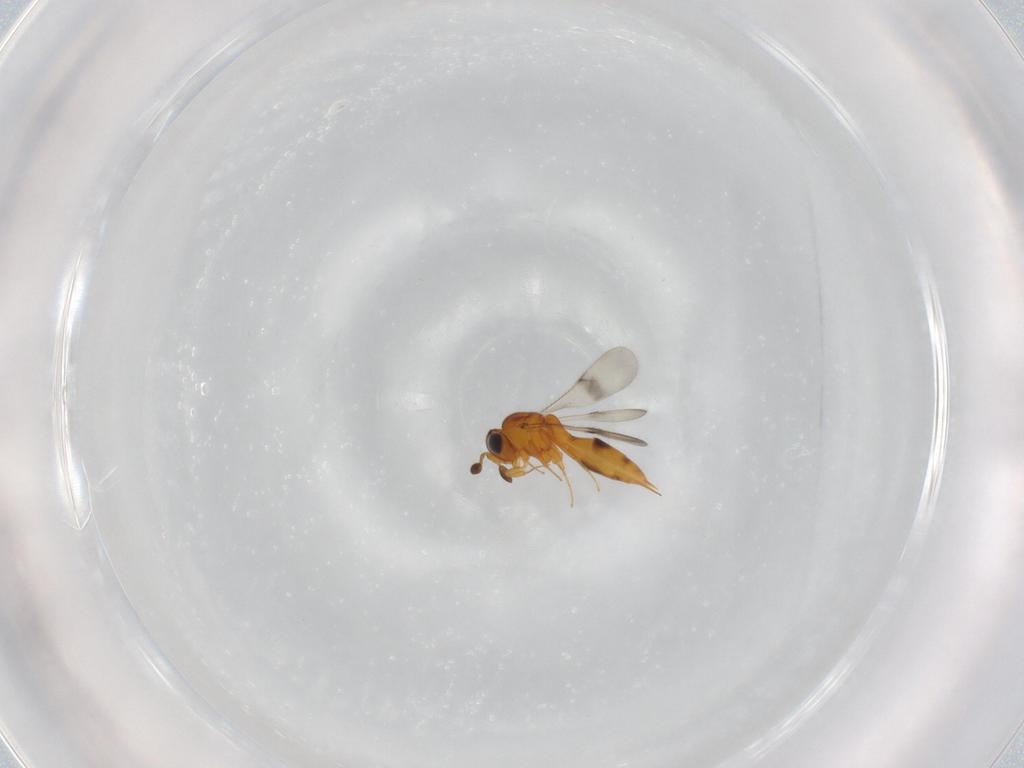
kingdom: Animalia
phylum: Arthropoda
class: Insecta
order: Hymenoptera
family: Scelionidae
